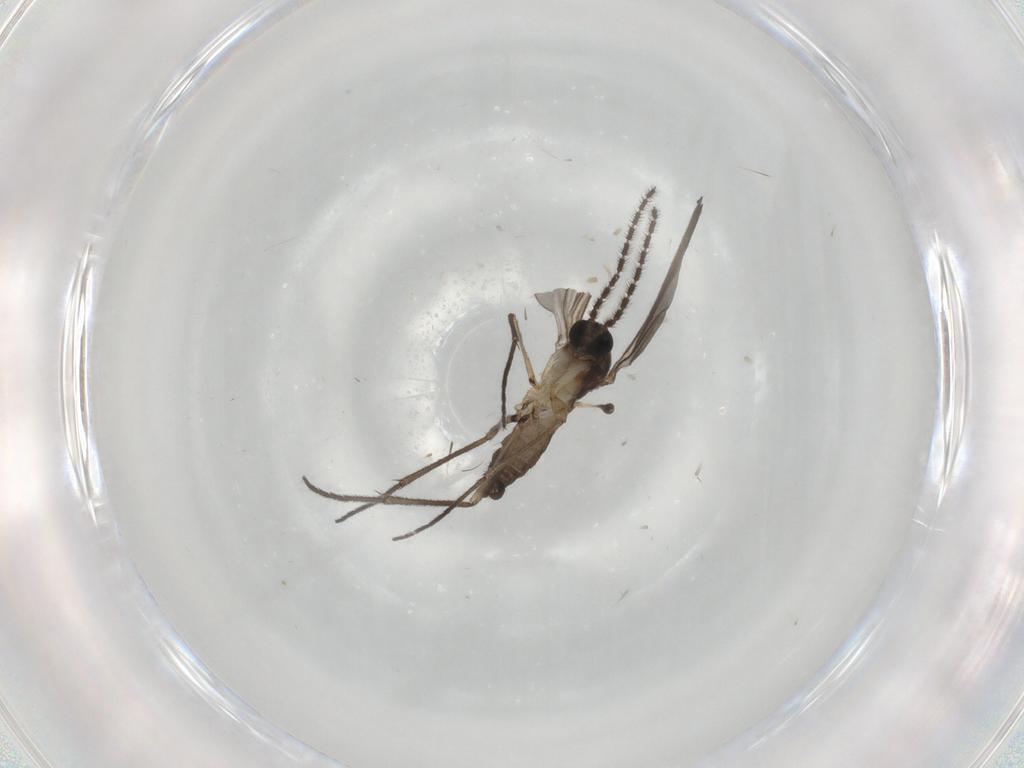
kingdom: Animalia
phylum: Arthropoda
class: Insecta
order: Diptera
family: Sciaridae
